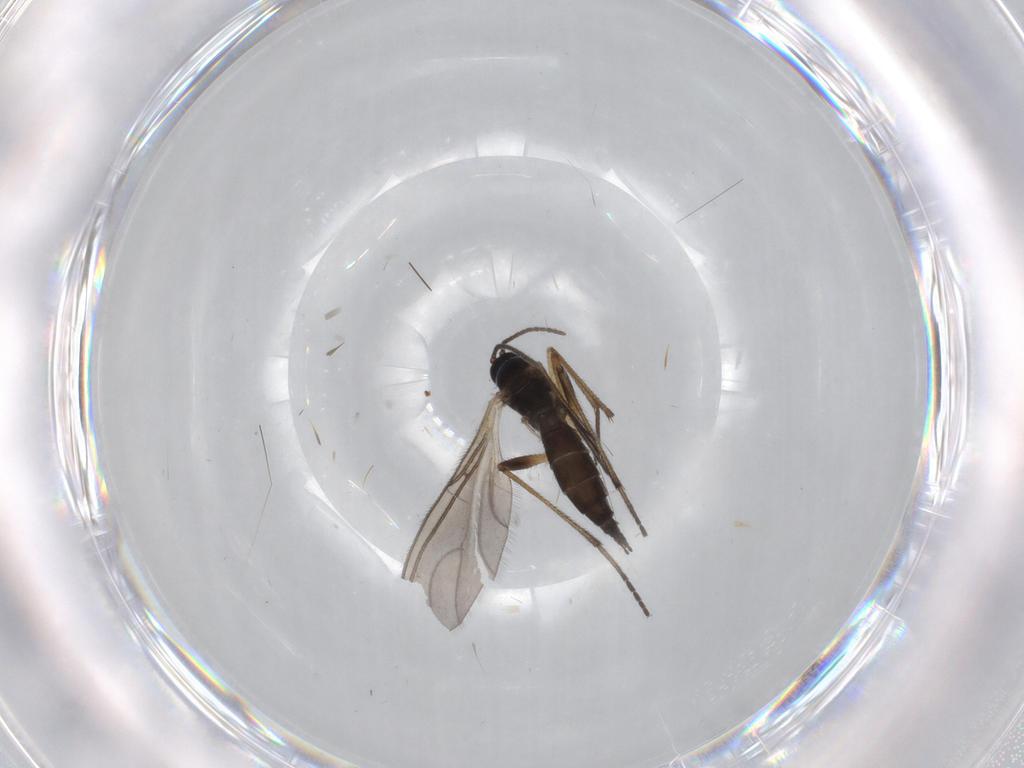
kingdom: Animalia
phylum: Arthropoda
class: Insecta
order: Diptera
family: Sciaridae
